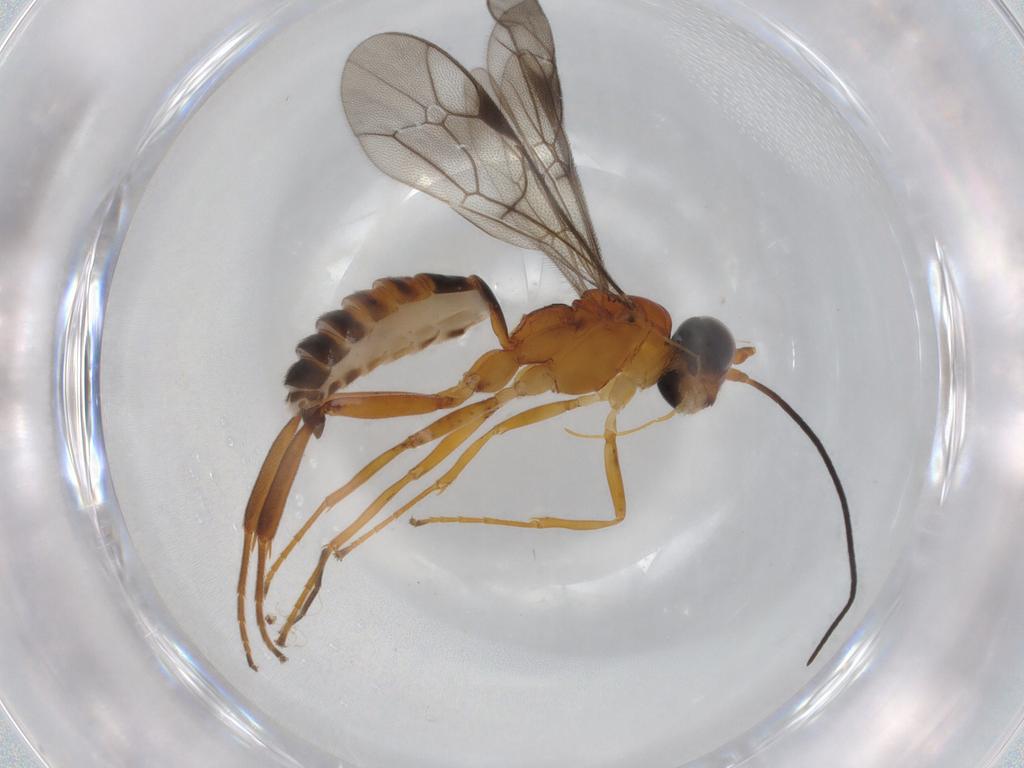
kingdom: Animalia
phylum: Arthropoda
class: Insecta
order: Hymenoptera
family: Ichneumonidae
